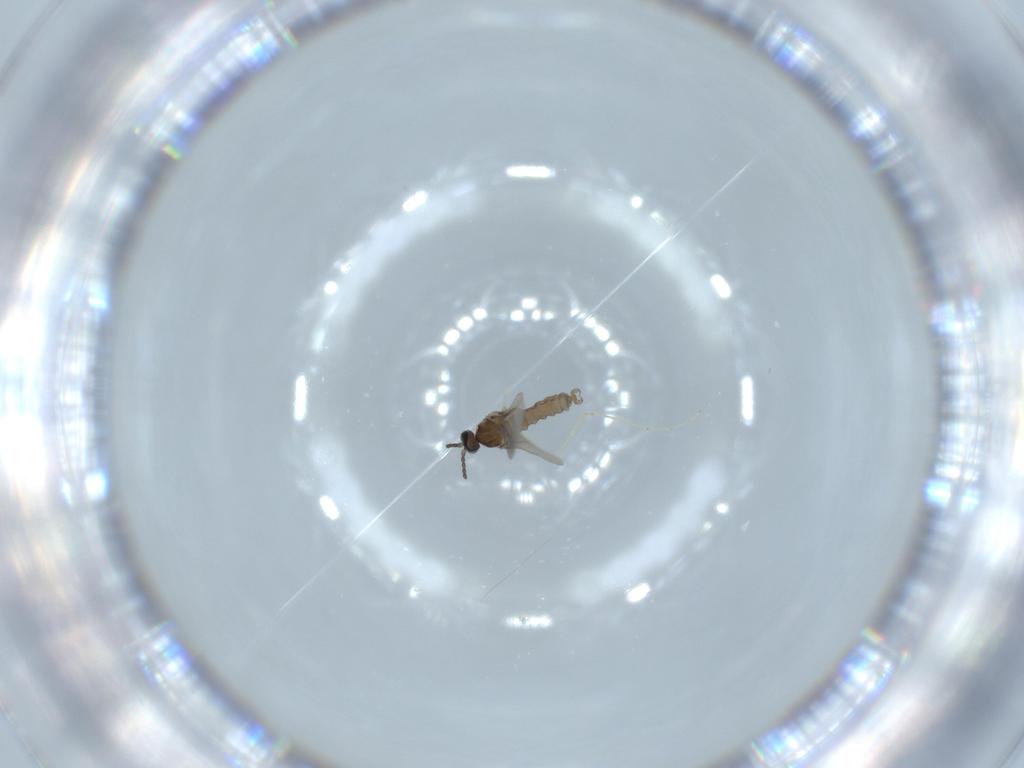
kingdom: Animalia
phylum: Arthropoda
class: Insecta
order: Diptera
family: Cecidomyiidae
